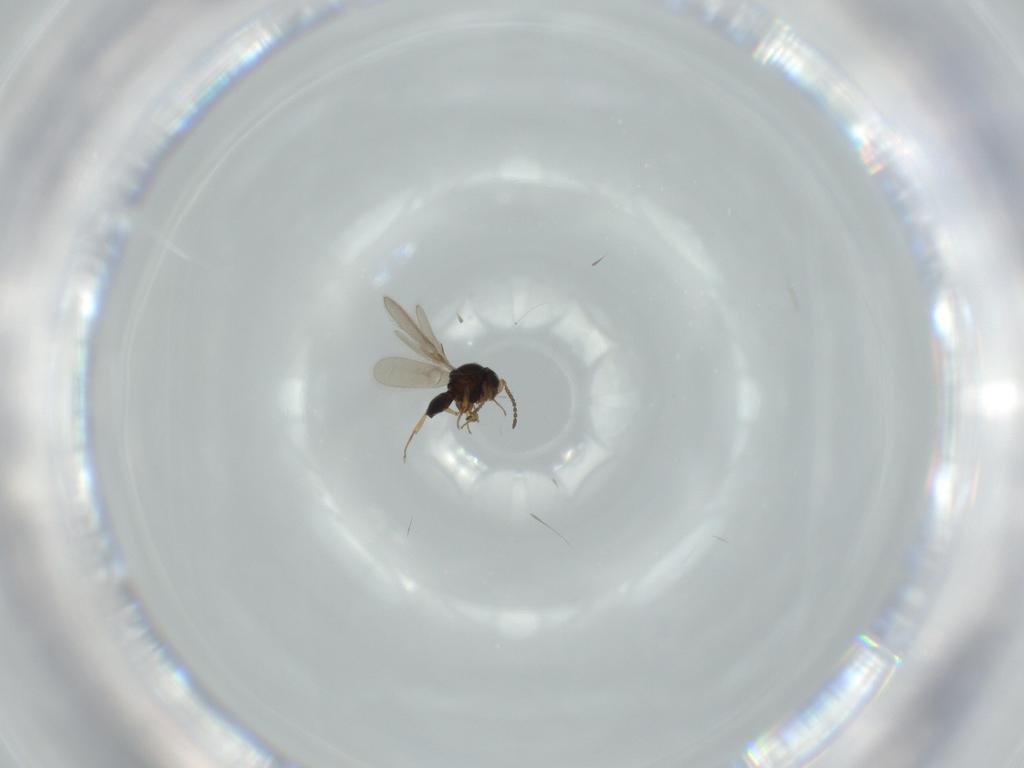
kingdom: Animalia
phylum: Arthropoda
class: Insecta
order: Hymenoptera
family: Scelionidae
